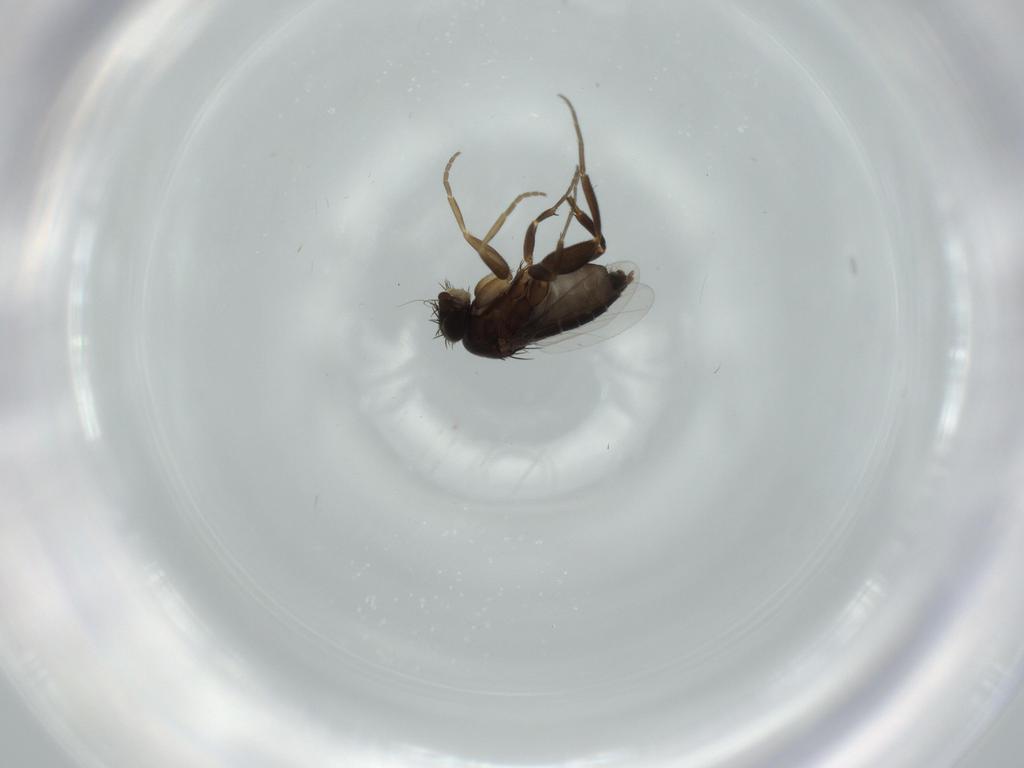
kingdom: Animalia
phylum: Arthropoda
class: Insecta
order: Diptera
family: Phoridae
